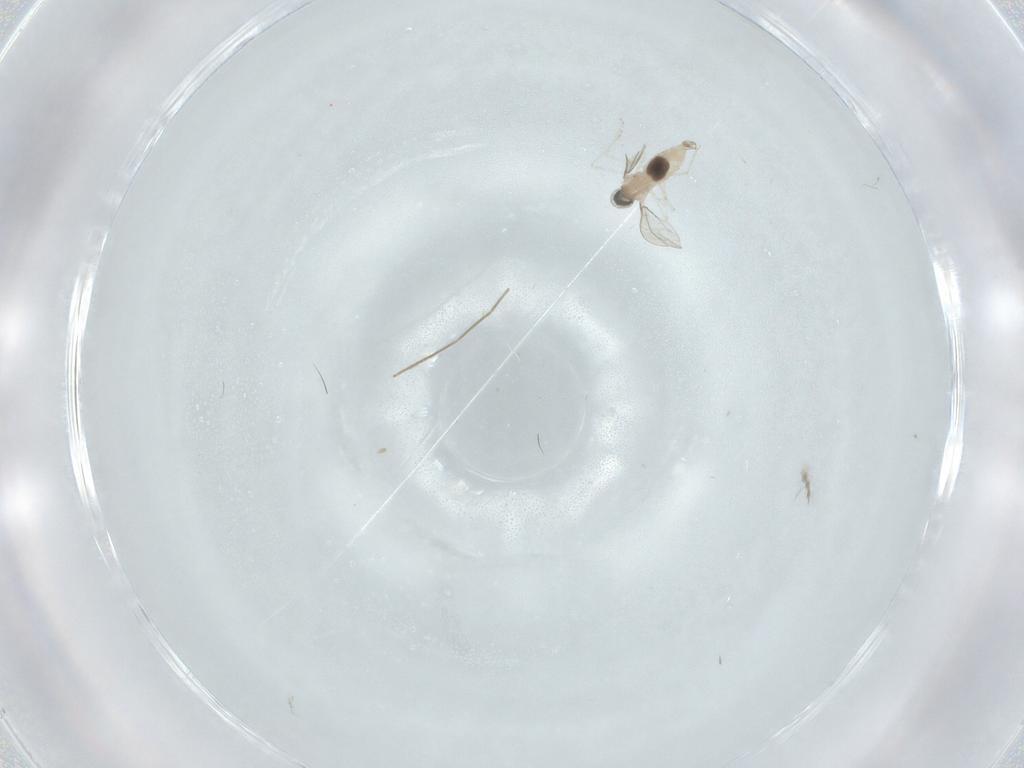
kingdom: Animalia
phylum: Arthropoda
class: Insecta
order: Diptera
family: Cecidomyiidae
